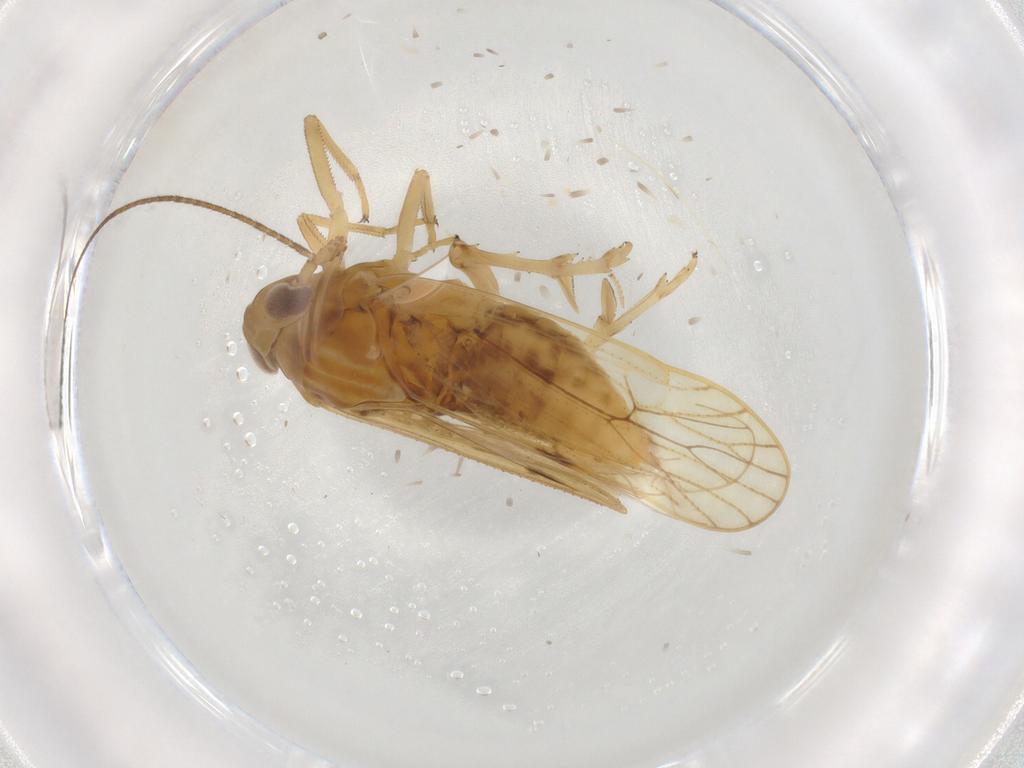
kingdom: Animalia
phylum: Arthropoda
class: Insecta
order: Hemiptera
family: Delphacidae
